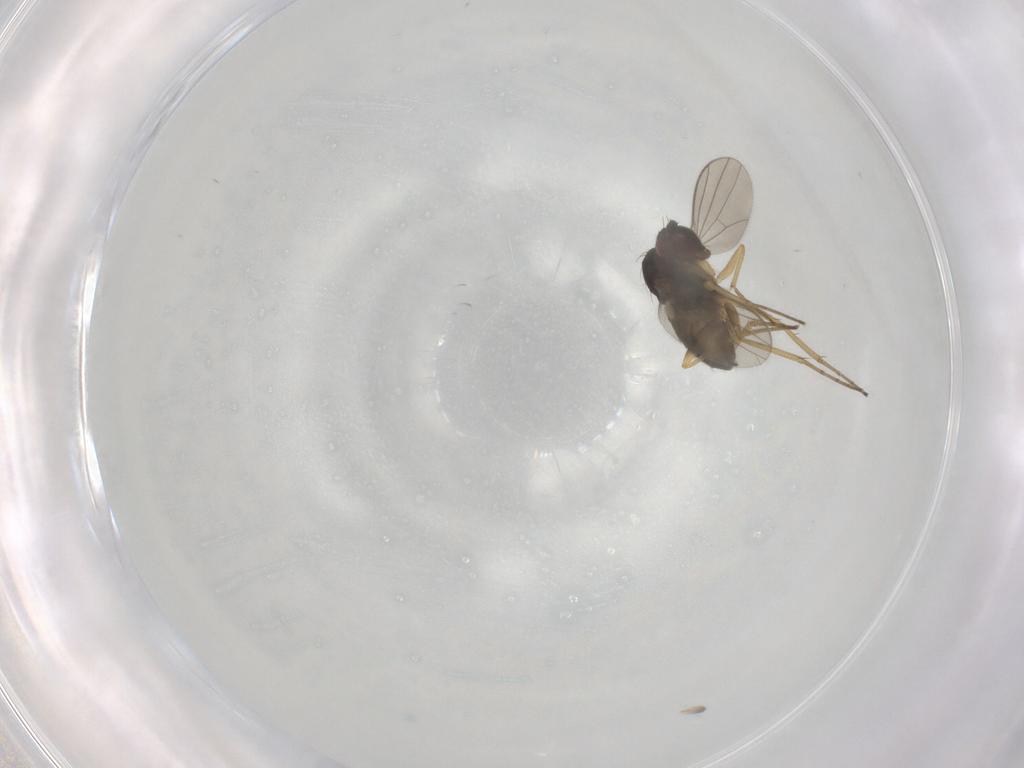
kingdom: Animalia
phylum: Arthropoda
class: Insecta
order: Diptera
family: Dolichopodidae
